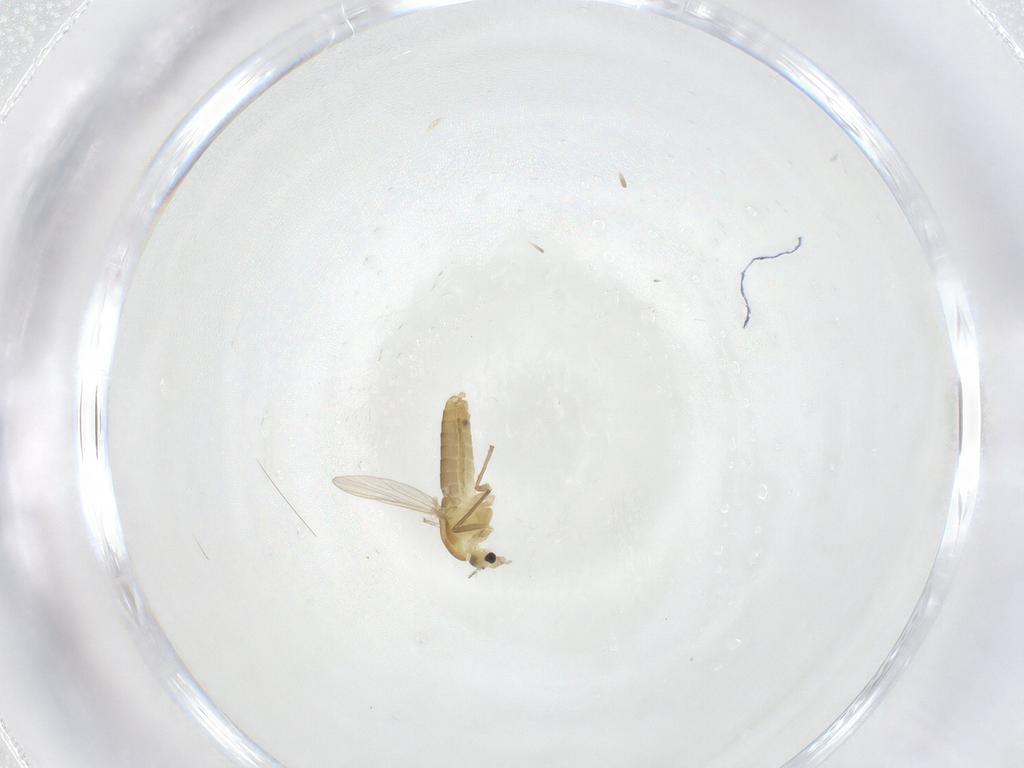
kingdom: Animalia
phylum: Arthropoda
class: Insecta
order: Diptera
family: Chironomidae
